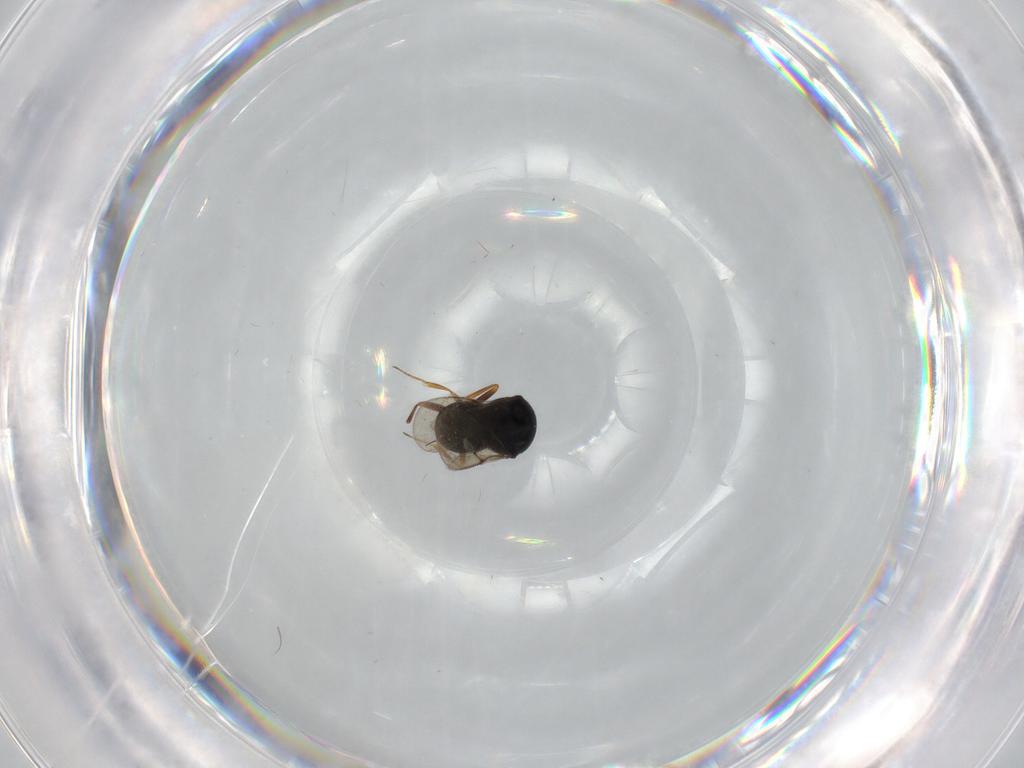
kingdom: Animalia
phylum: Arthropoda
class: Insecta
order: Hymenoptera
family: Scelionidae
